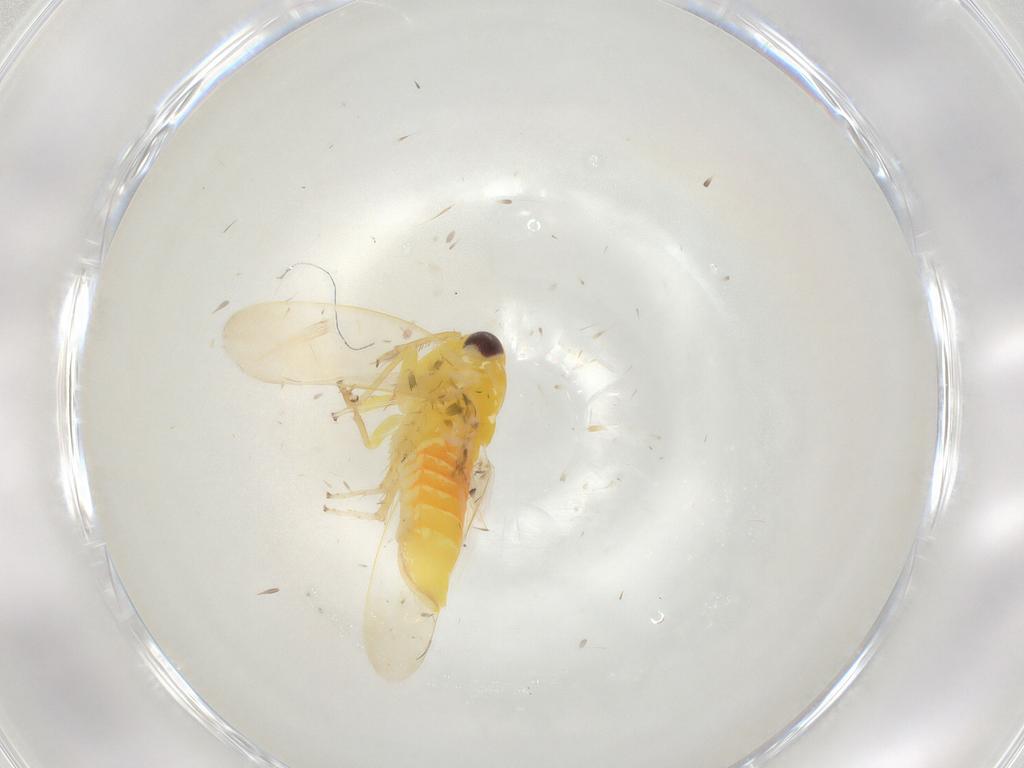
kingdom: Animalia
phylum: Arthropoda
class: Insecta
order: Hemiptera
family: Cicadellidae
